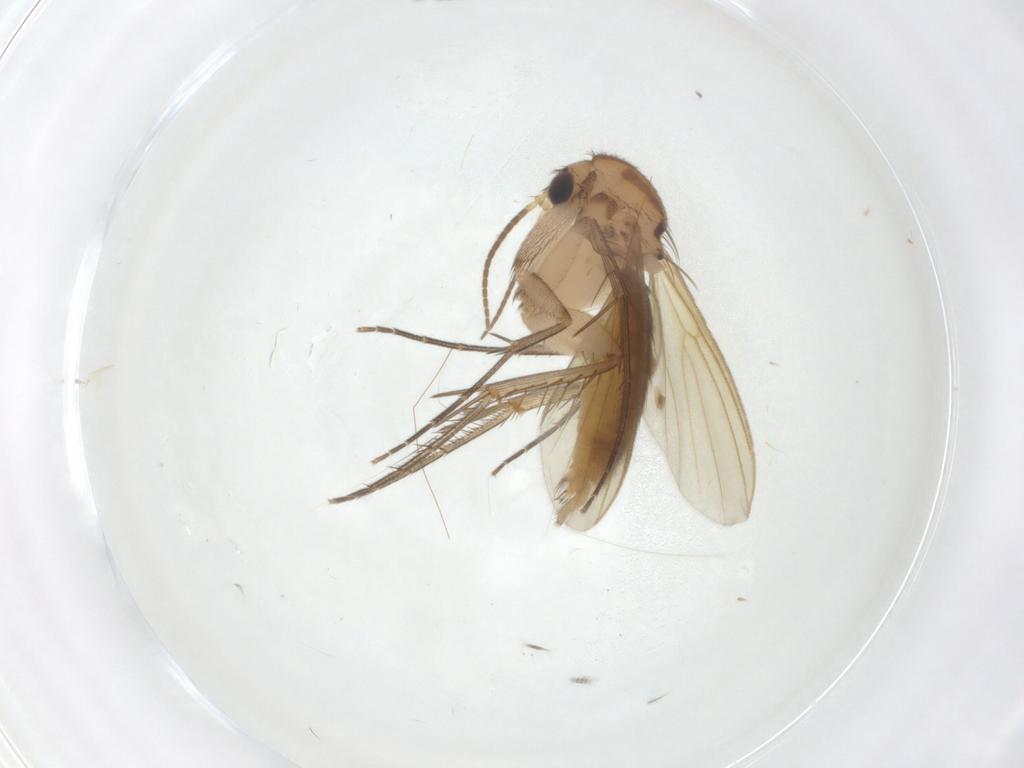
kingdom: Animalia
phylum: Arthropoda
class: Insecta
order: Diptera
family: Mycetophilidae
